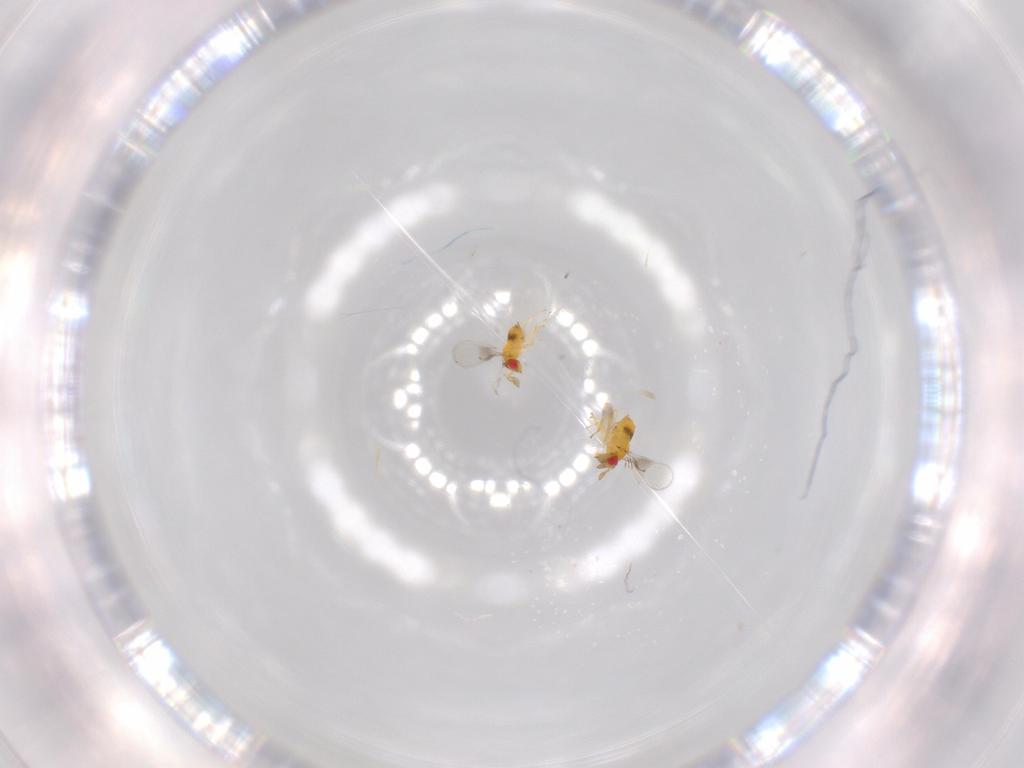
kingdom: Animalia
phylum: Arthropoda
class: Insecta
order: Hymenoptera
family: Trichogrammatidae
